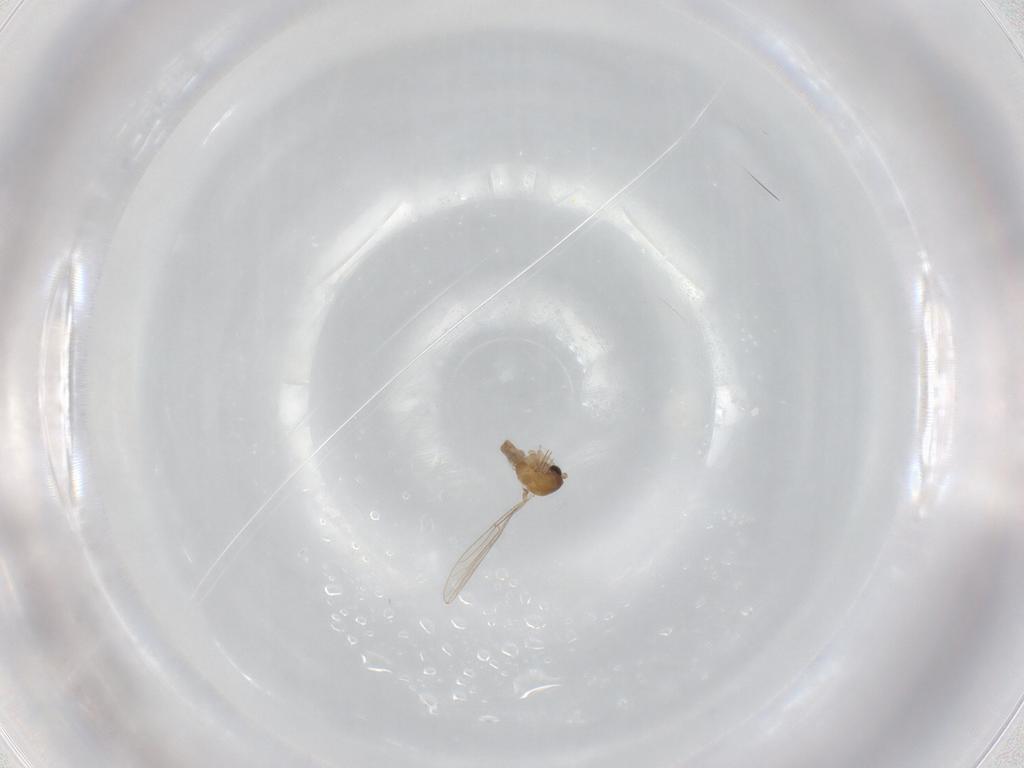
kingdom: Animalia
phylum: Arthropoda
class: Insecta
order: Diptera
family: Psychodidae
